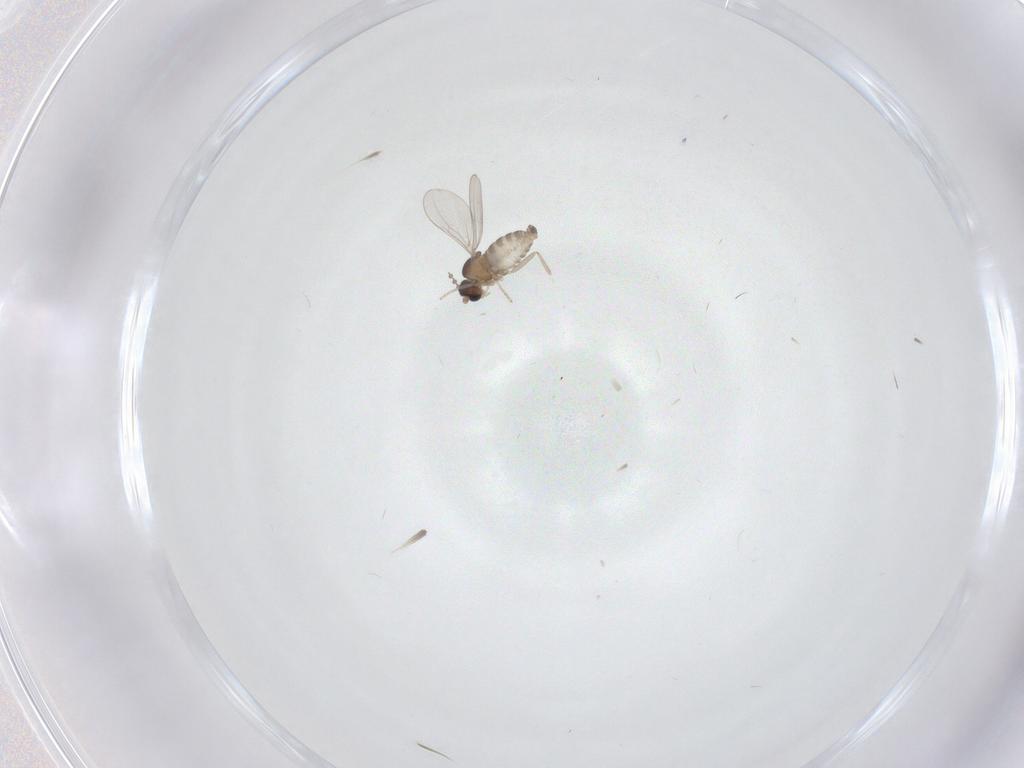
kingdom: Animalia
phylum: Arthropoda
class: Insecta
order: Diptera
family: Cecidomyiidae
